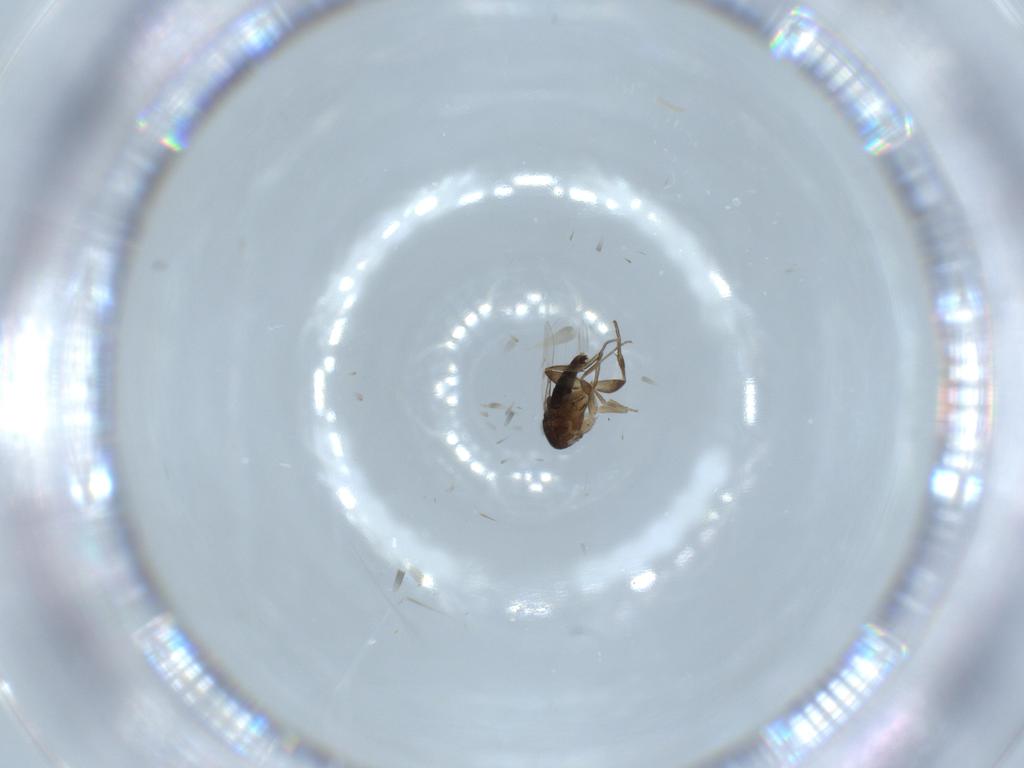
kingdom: Animalia
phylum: Arthropoda
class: Insecta
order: Diptera
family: Phoridae
